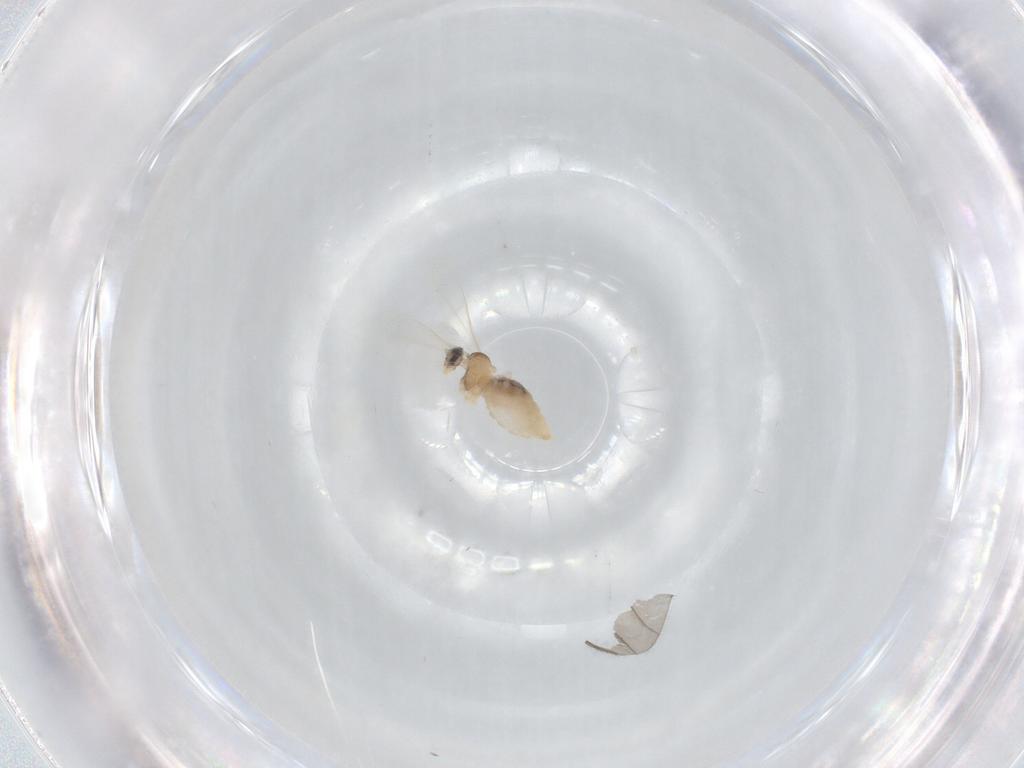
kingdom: Animalia
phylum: Arthropoda
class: Insecta
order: Diptera
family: Cecidomyiidae
